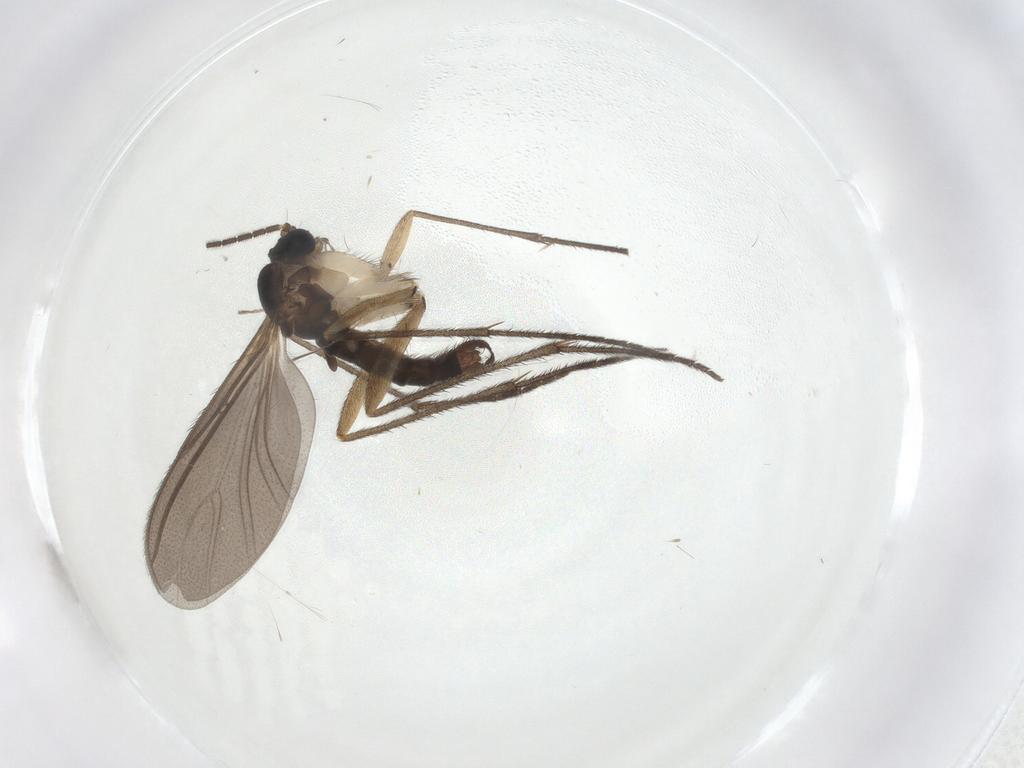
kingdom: Animalia
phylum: Arthropoda
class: Insecta
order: Diptera
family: Sciaridae
